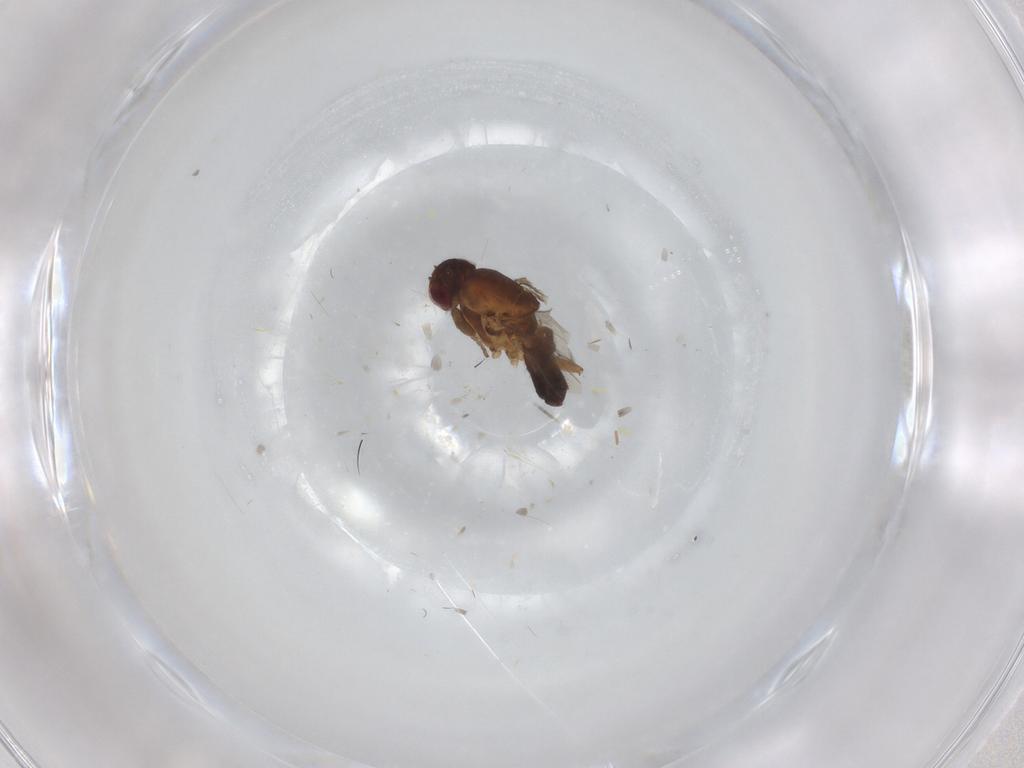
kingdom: Animalia
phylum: Arthropoda
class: Insecta
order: Diptera
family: Sphaeroceridae
